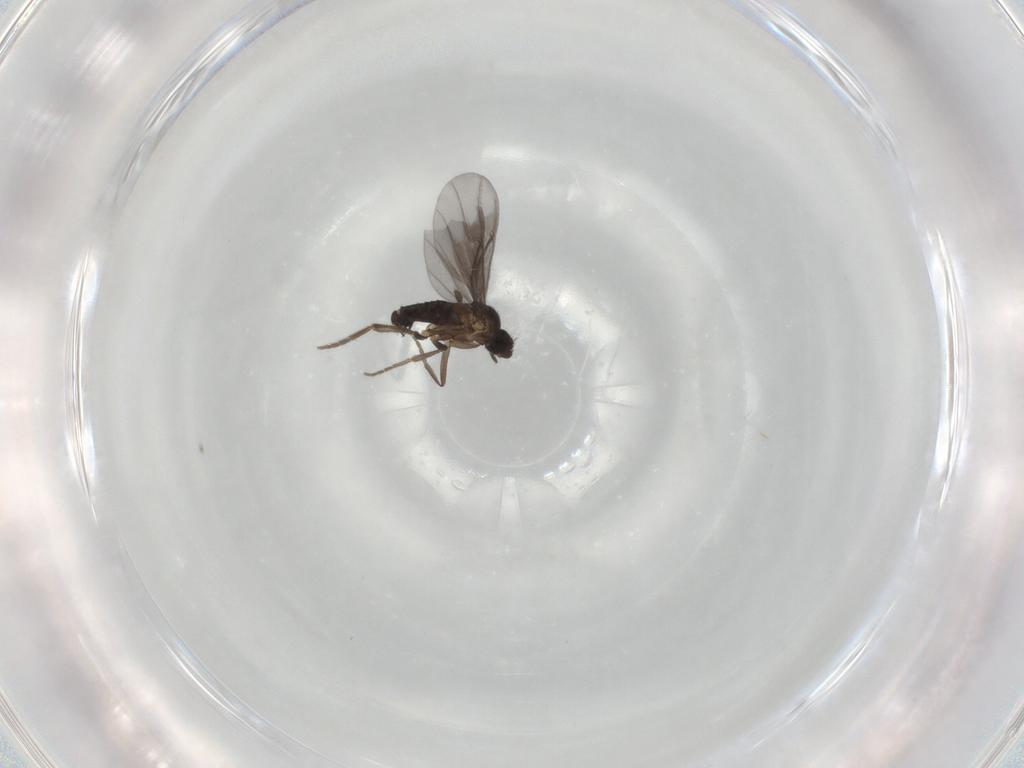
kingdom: Animalia
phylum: Arthropoda
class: Insecta
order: Diptera
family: Phoridae
